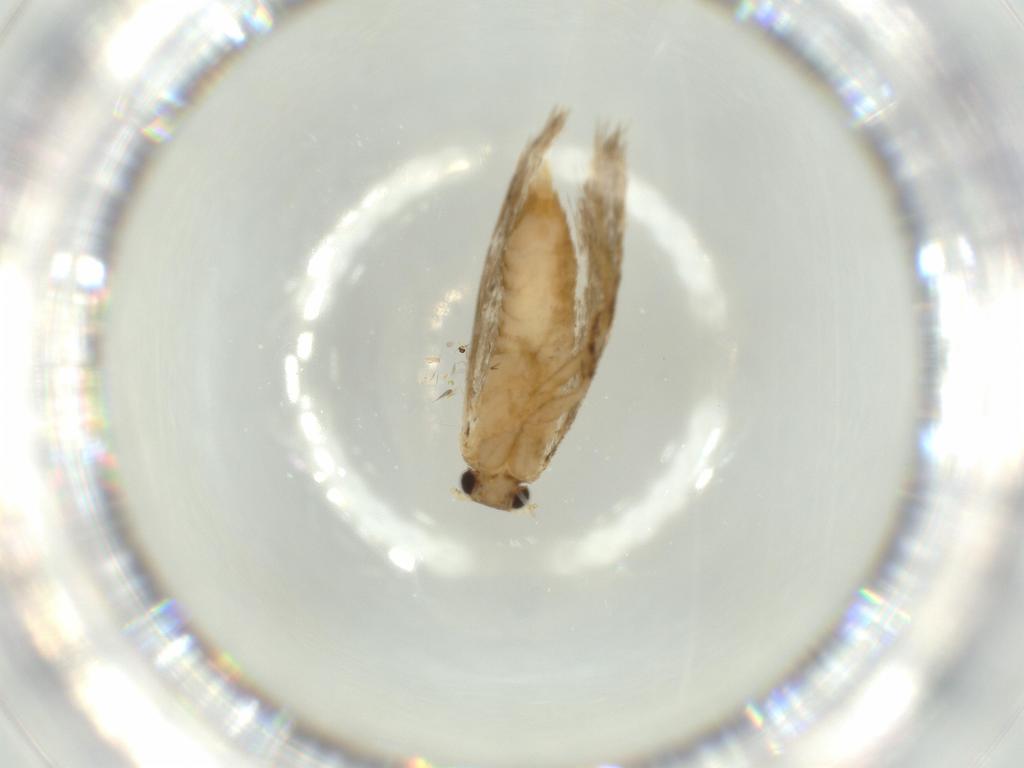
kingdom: Animalia
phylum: Arthropoda
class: Insecta
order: Lepidoptera
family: Tineidae
